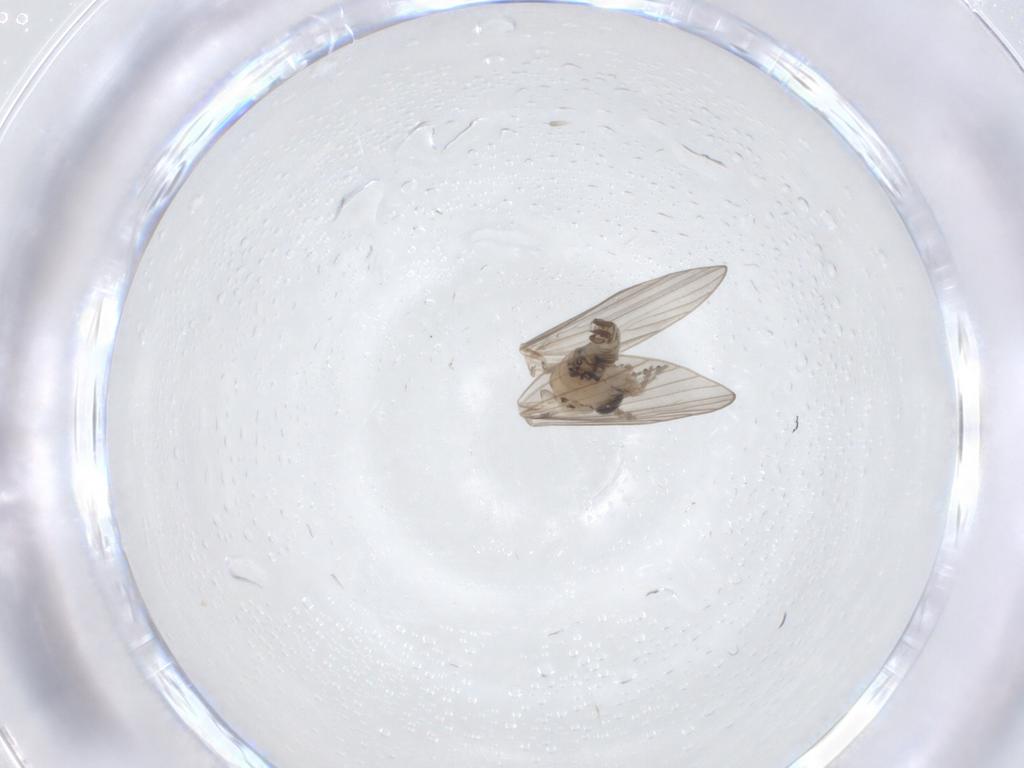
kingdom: Animalia
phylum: Arthropoda
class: Insecta
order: Diptera
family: Psychodidae
